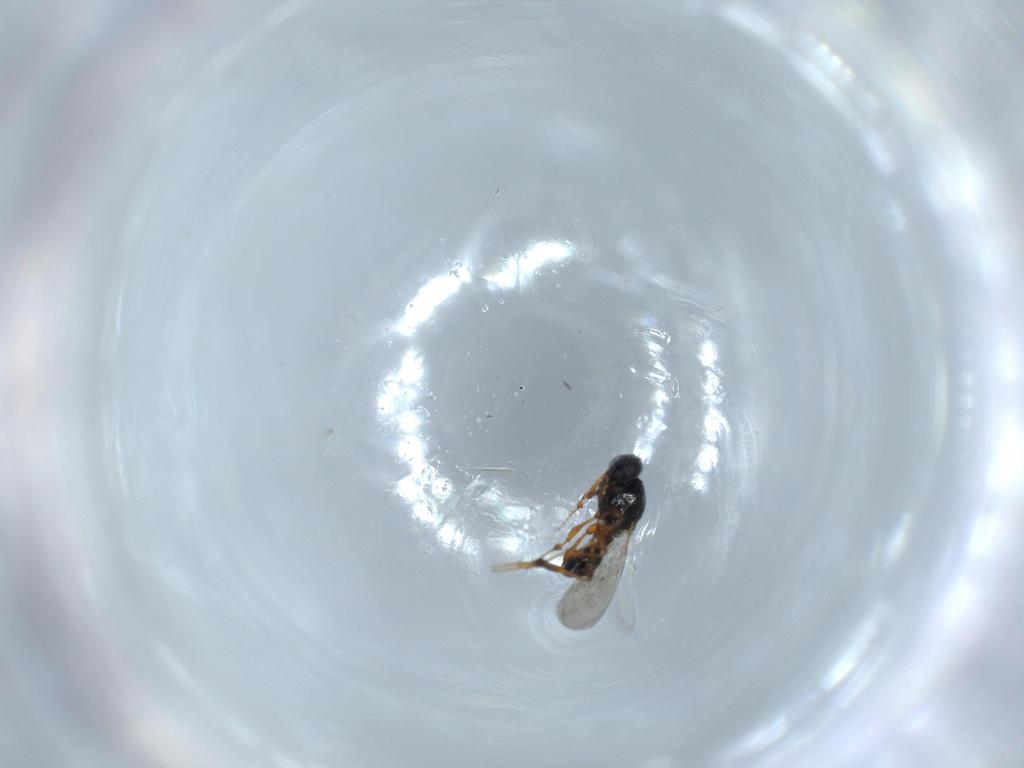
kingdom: Animalia
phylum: Arthropoda
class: Insecta
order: Hymenoptera
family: Platygastridae
